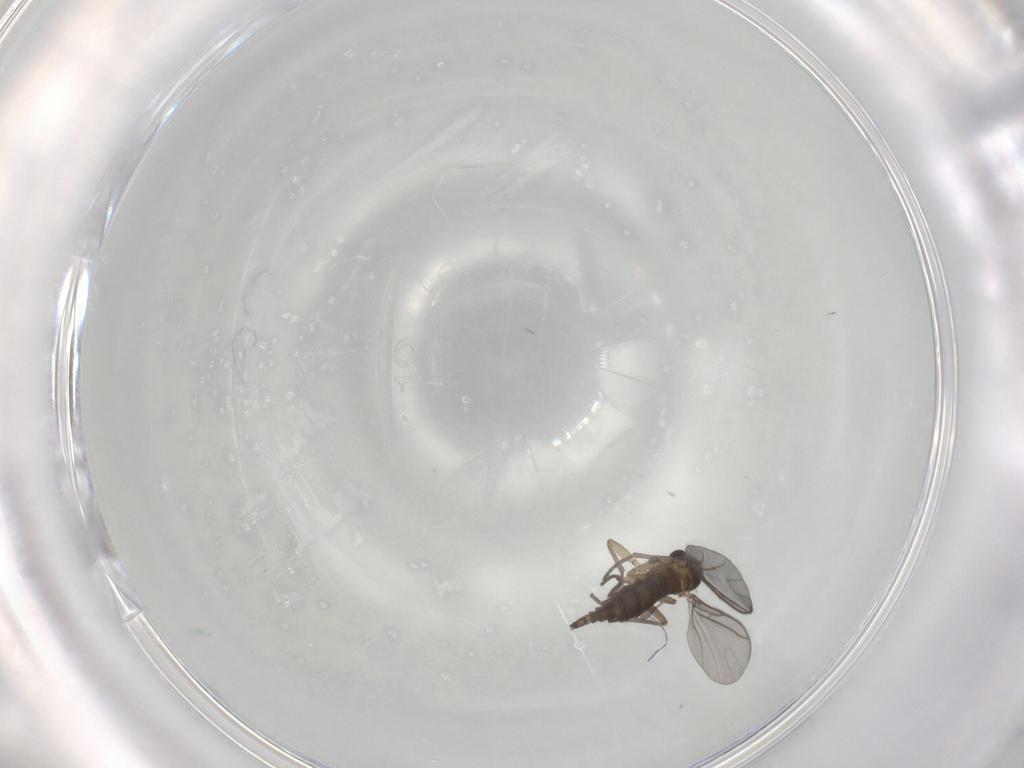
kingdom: Animalia
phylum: Arthropoda
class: Insecta
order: Diptera
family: Sciaridae
